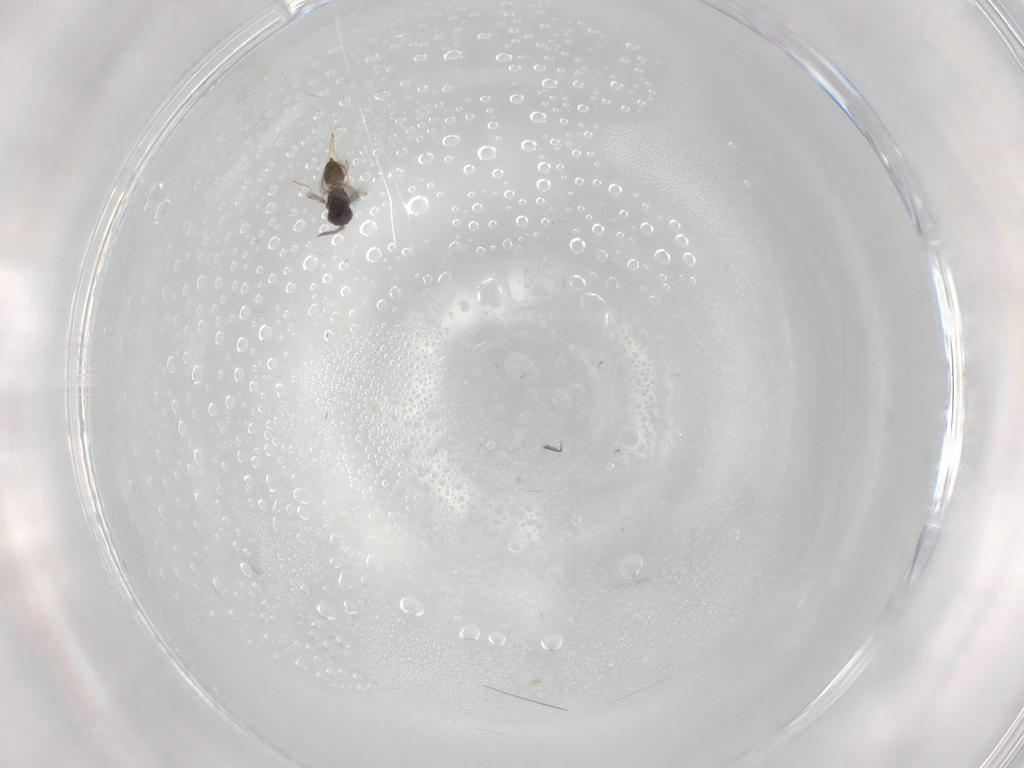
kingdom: Animalia
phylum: Arthropoda
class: Insecta
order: Hymenoptera
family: Eulophidae
